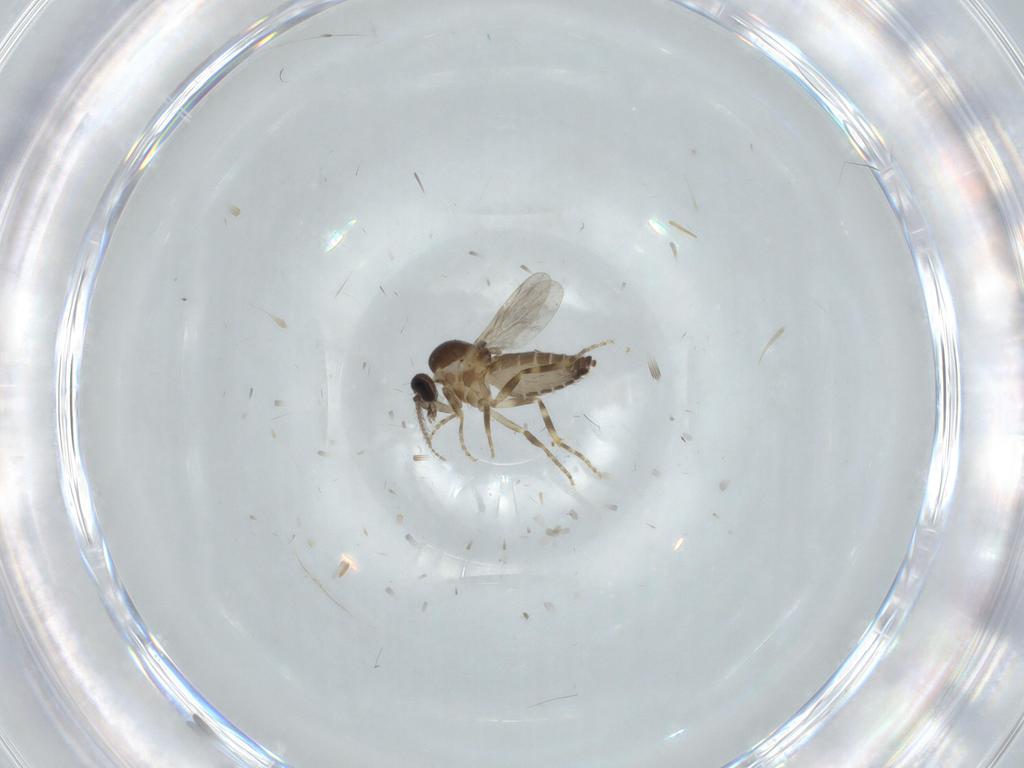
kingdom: Animalia
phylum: Arthropoda
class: Insecta
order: Diptera
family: Ceratopogonidae
